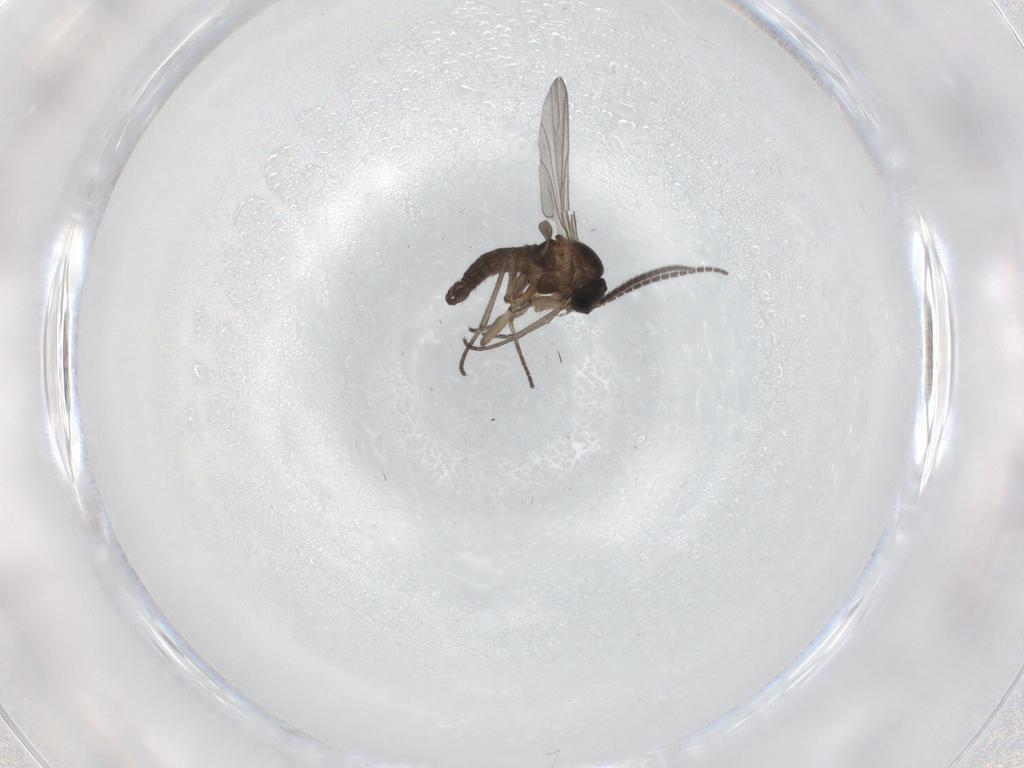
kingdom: Animalia
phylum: Arthropoda
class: Insecta
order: Diptera
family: Sciaridae
